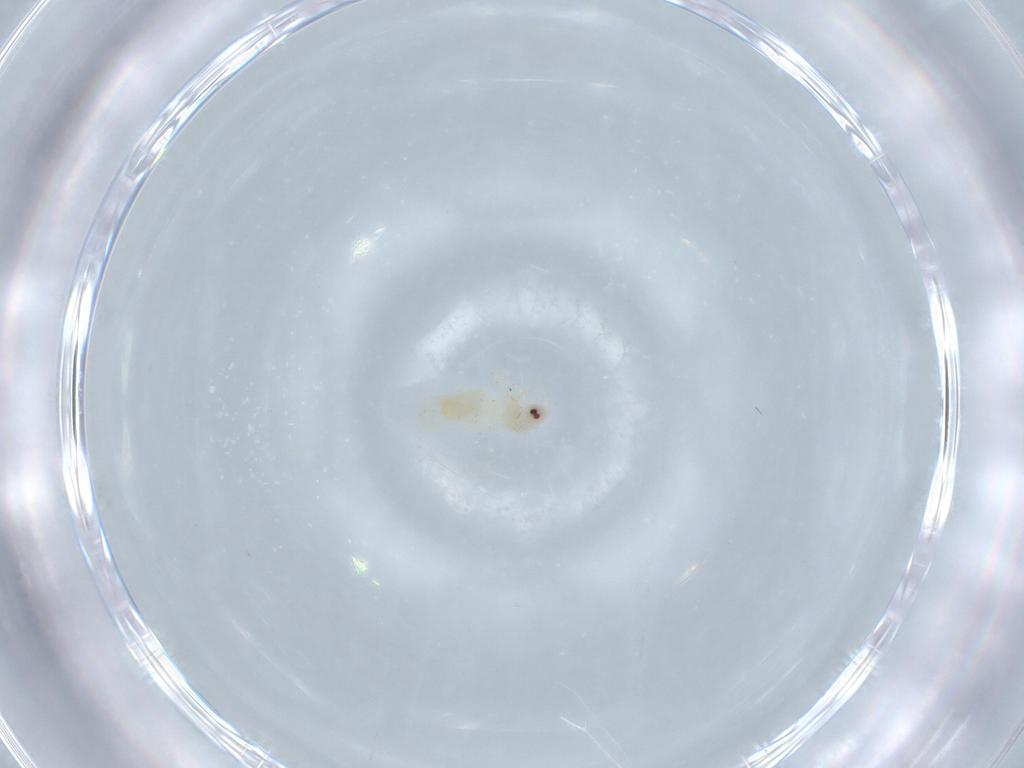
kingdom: Animalia
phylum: Arthropoda
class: Insecta
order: Hemiptera
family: Aleyrodidae
